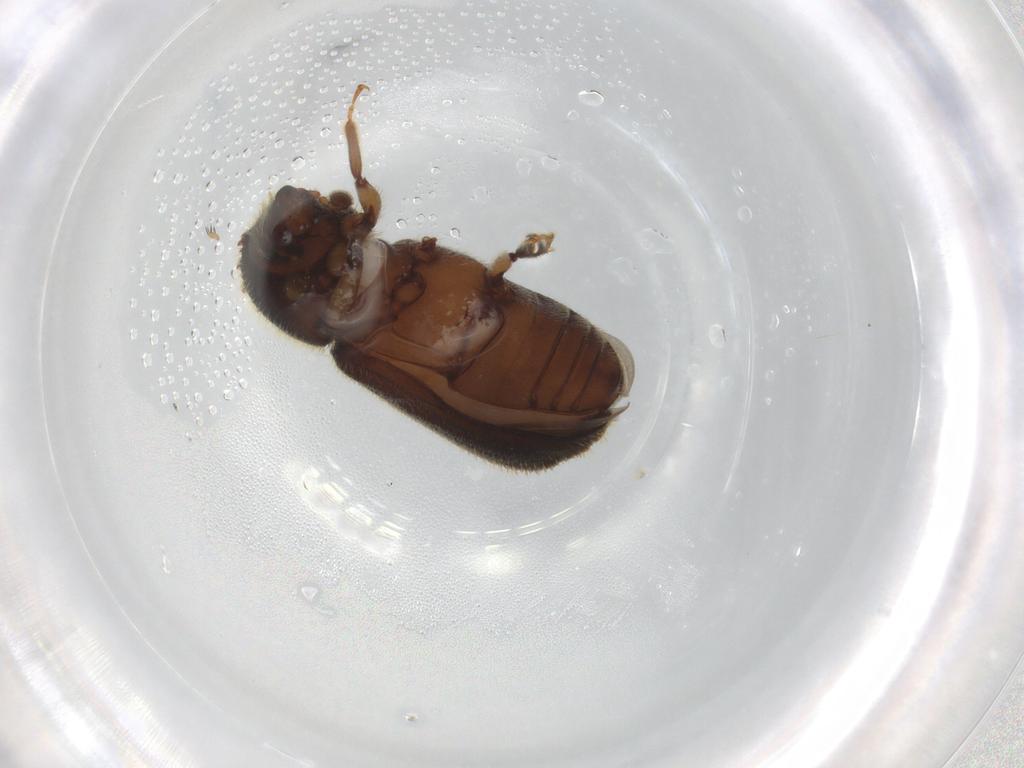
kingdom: Animalia
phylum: Arthropoda
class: Insecta
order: Coleoptera
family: Curculionidae
